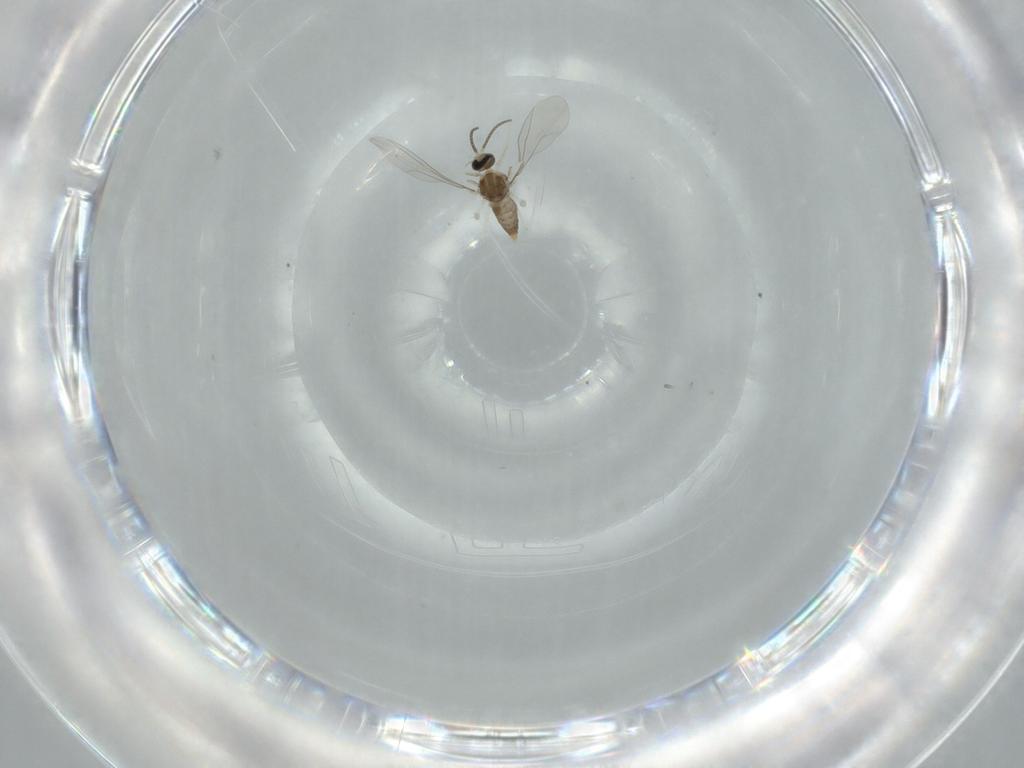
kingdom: Animalia
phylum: Arthropoda
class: Insecta
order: Diptera
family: Cecidomyiidae
